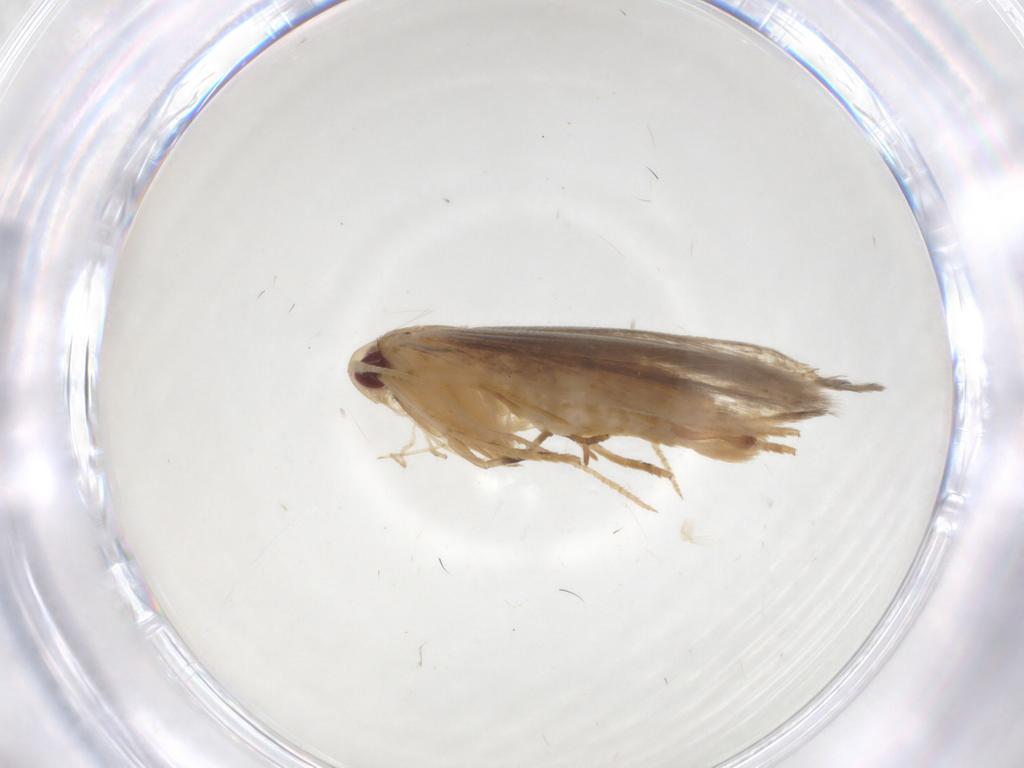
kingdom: Animalia
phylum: Arthropoda
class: Insecta
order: Lepidoptera
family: Cosmopterigidae
